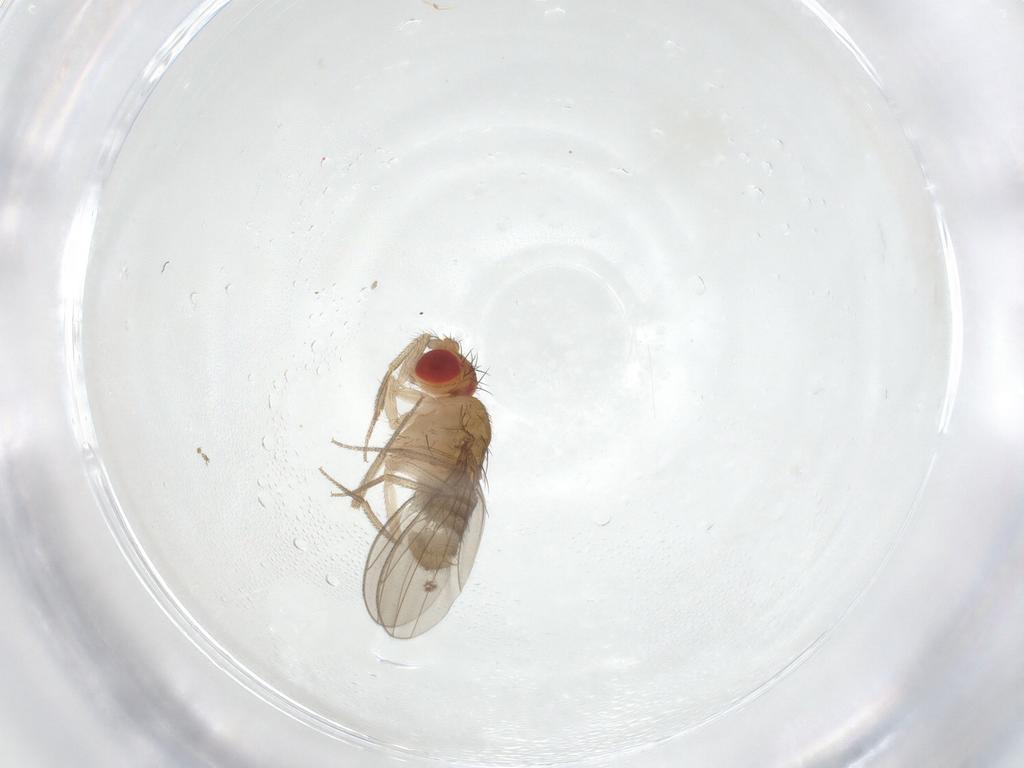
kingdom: Animalia
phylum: Arthropoda
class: Insecta
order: Diptera
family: Drosophilidae
